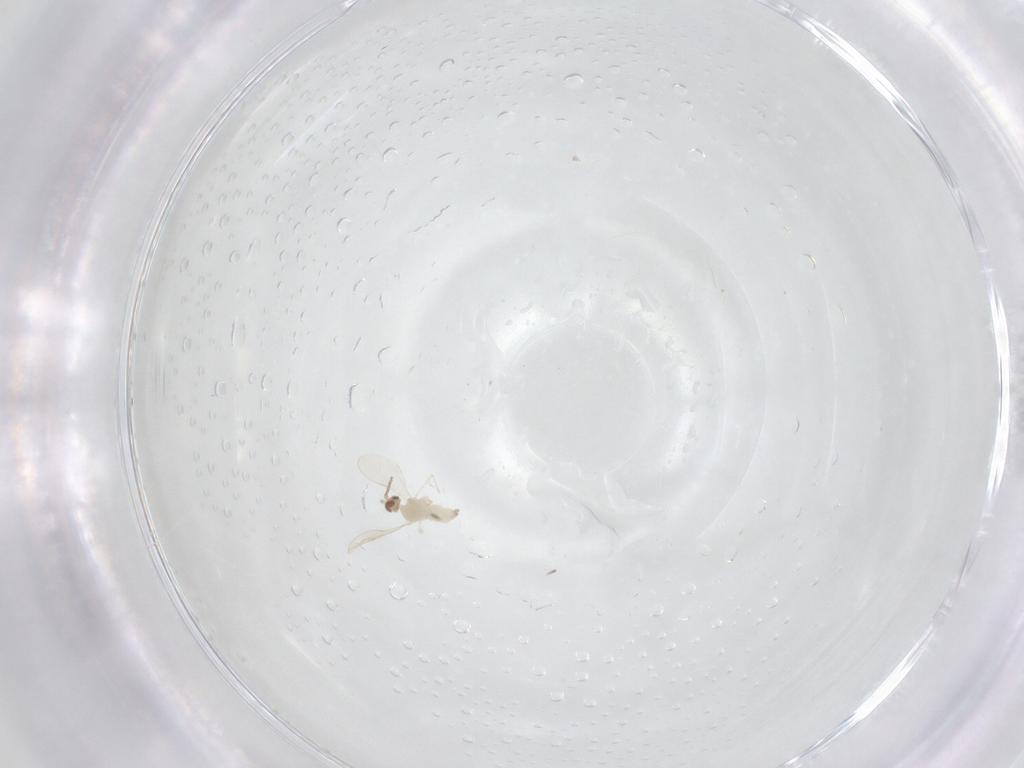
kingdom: Animalia
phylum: Arthropoda
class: Insecta
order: Diptera
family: Cecidomyiidae
